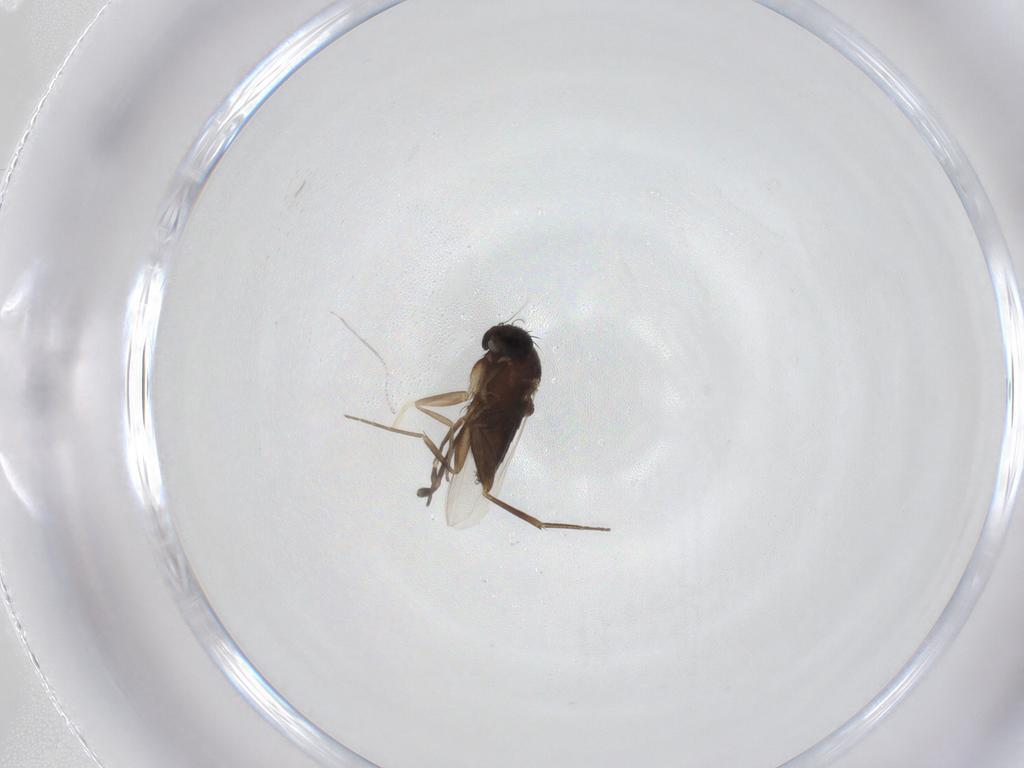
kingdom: Animalia
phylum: Arthropoda
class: Insecta
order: Diptera
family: Phoridae
